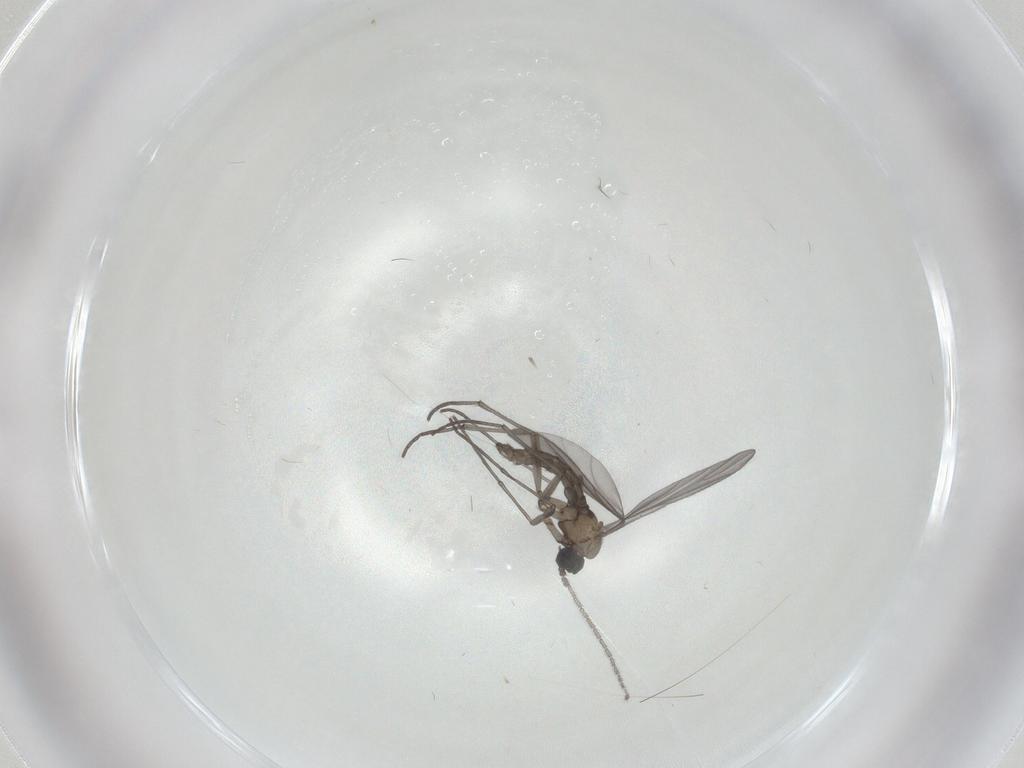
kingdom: Animalia
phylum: Arthropoda
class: Insecta
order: Diptera
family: Sciaridae
